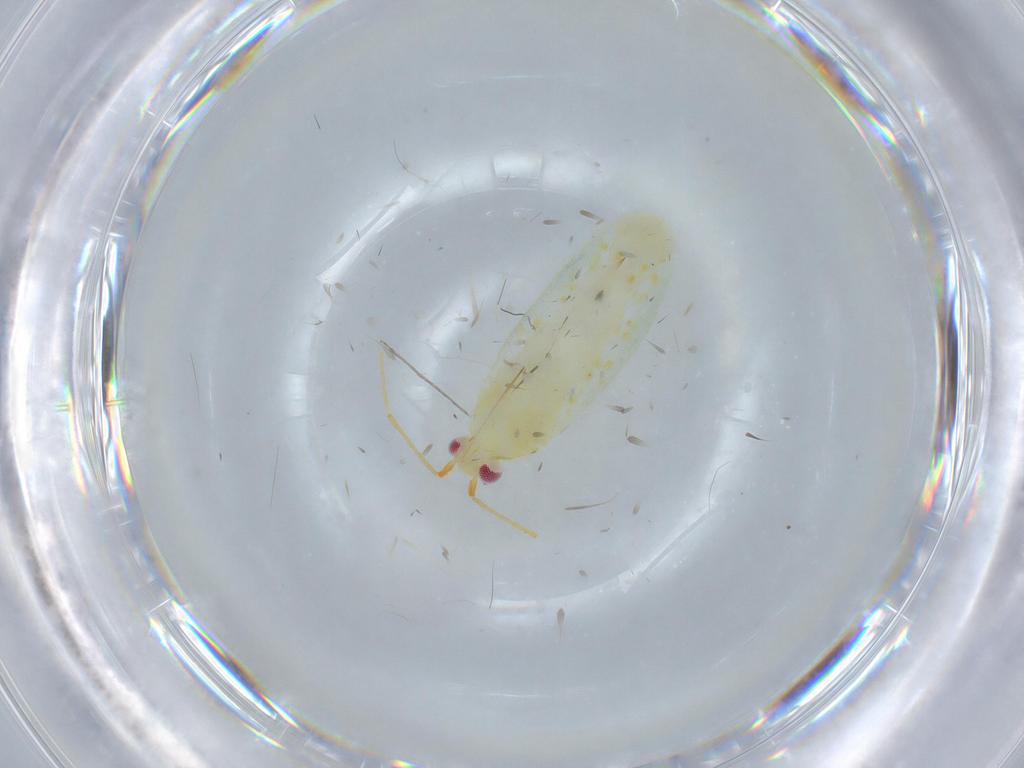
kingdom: Animalia
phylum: Arthropoda
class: Insecta
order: Hemiptera
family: Miridae
